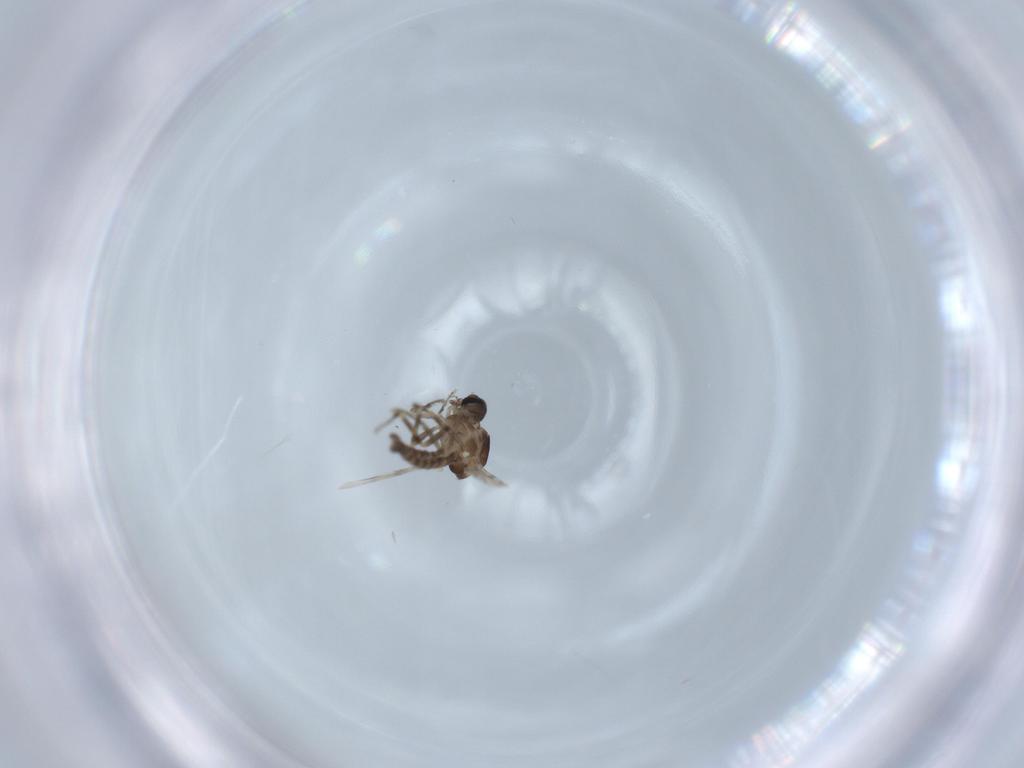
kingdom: Animalia
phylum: Arthropoda
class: Insecta
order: Diptera
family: Ceratopogonidae
